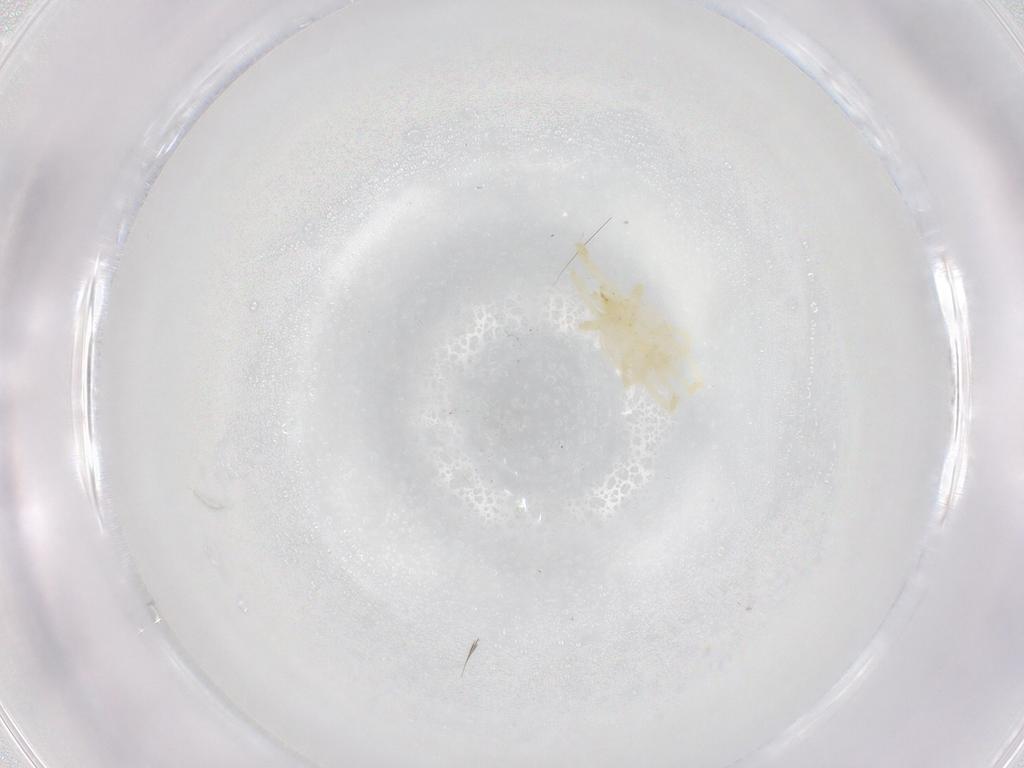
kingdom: Animalia
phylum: Arthropoda
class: Arachnida
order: Trombidiformes
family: Erythraeidae
